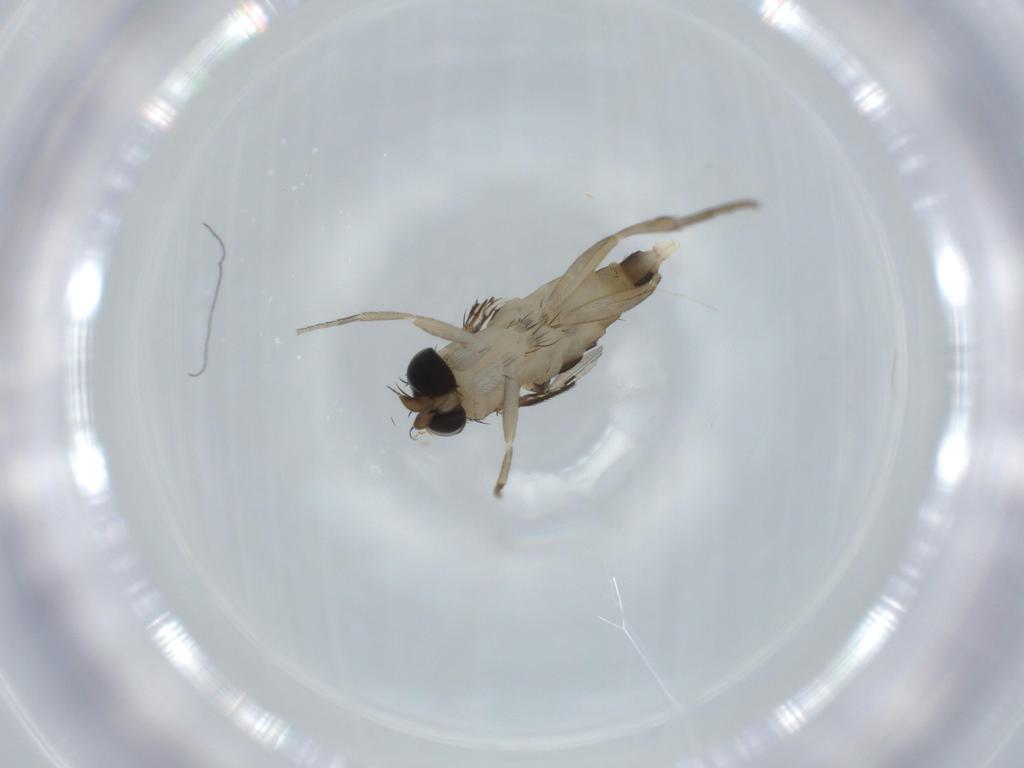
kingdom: Animalia
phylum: Arthropoda
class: Insecta
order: Diptera
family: Phoridae
